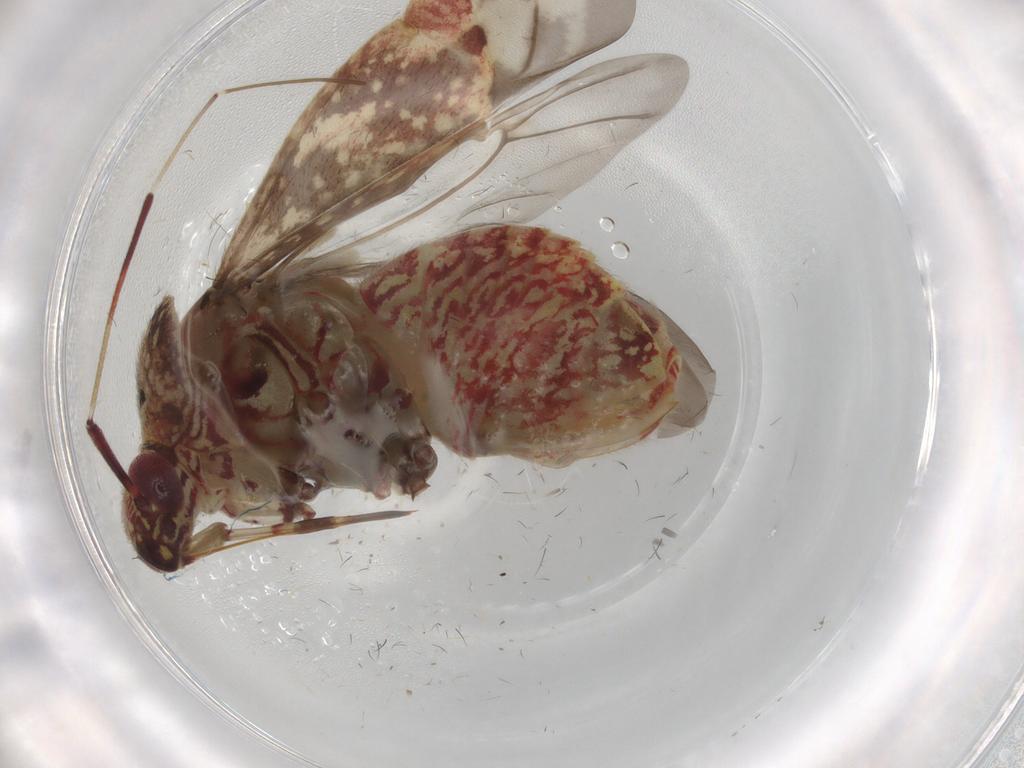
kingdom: Animalia
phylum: Arthropoda
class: Insecta
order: Hemiptera
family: Miridae
